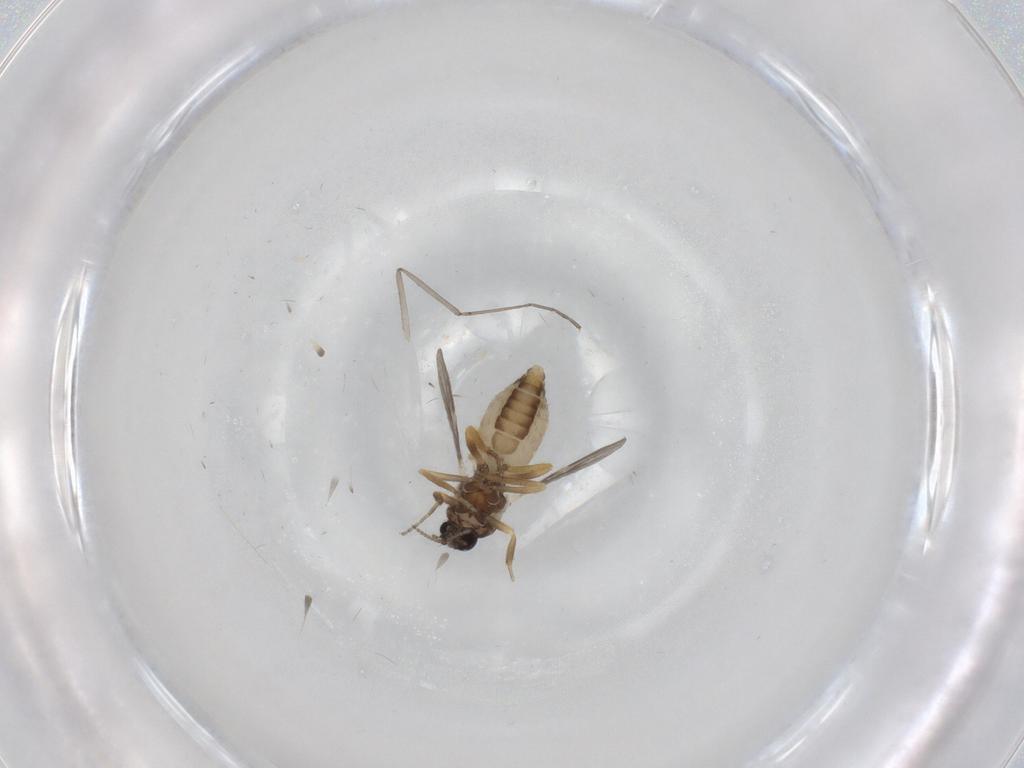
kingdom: Animalia
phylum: Arthropoda
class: Insecta
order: Diptera
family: Ceratopogonidae
